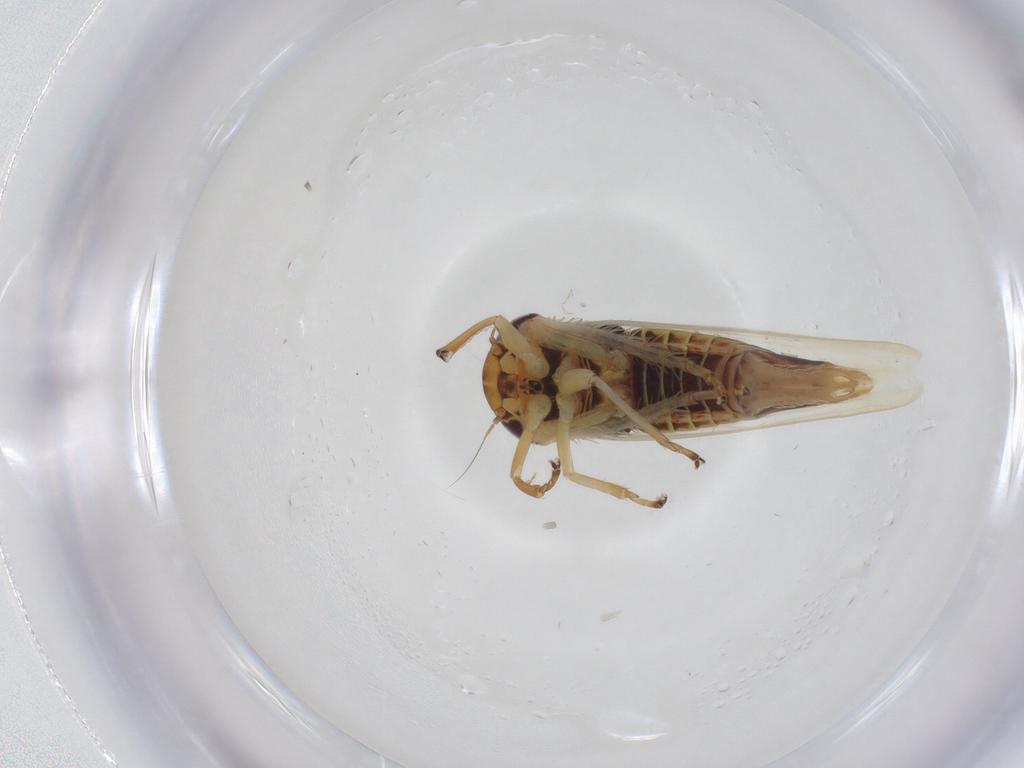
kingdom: Animalia
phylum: Arthropoda
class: Insecta
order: Hemiptera
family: Cicadellidae
